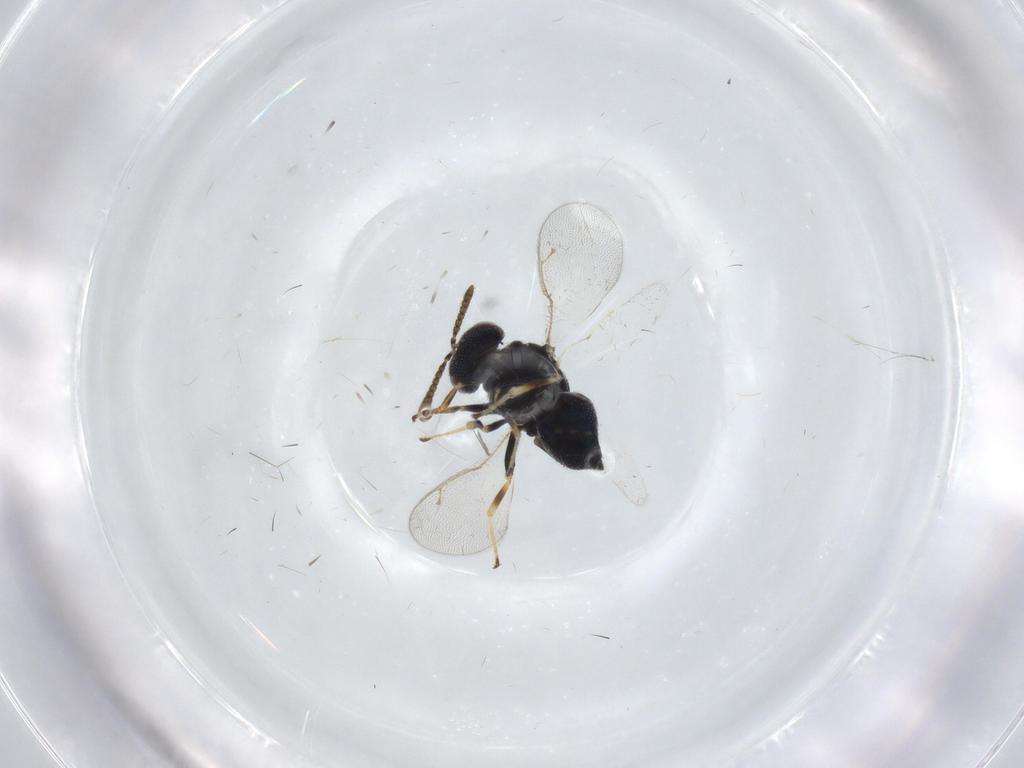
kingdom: Animalia
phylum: Arthropoda
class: Insecta
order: Hymenoptera
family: Pteromalidae
